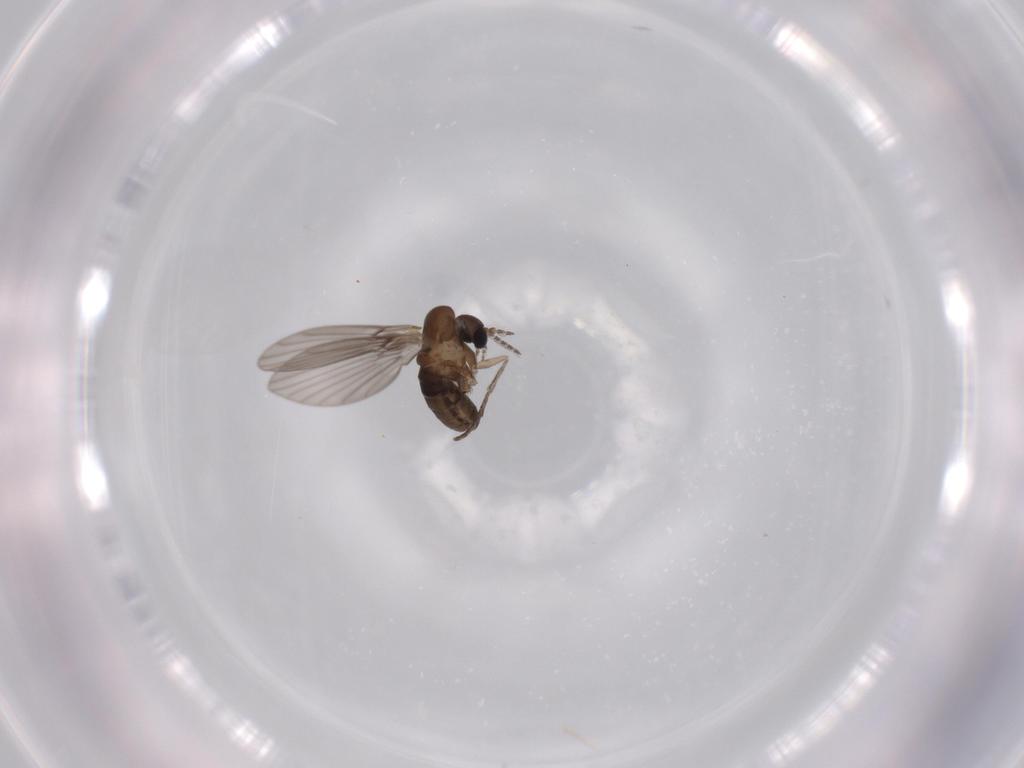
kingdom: Animalia
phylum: Arthropoda
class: Insecta
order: Diptera
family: Psychodidae
